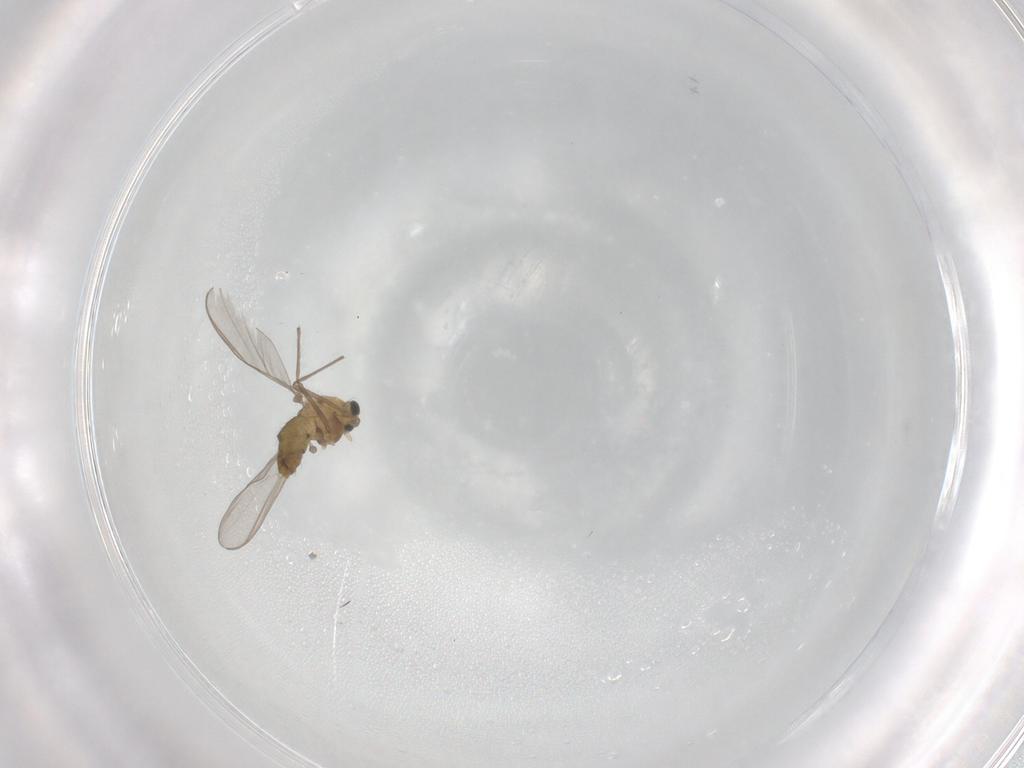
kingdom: Animalia
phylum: Arthropoda
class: Insecta
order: Diptera
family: Chironomidae
